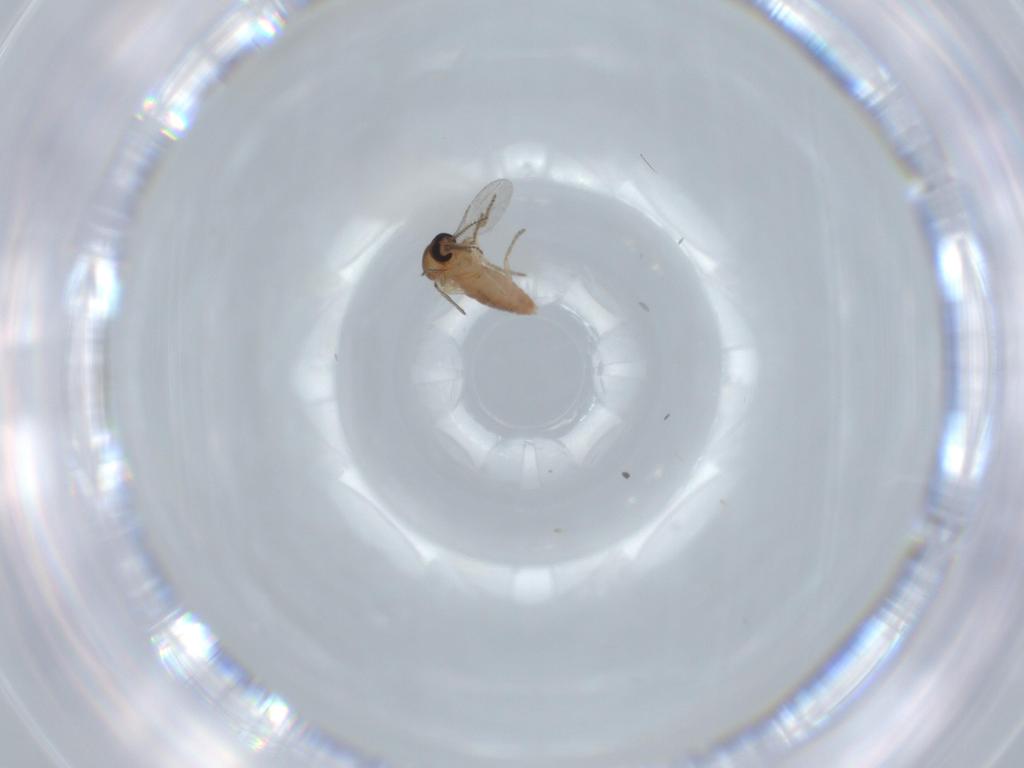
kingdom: Animalia
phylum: Arthropoda
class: Insecta
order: Diptera
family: Ceratopogonidae
